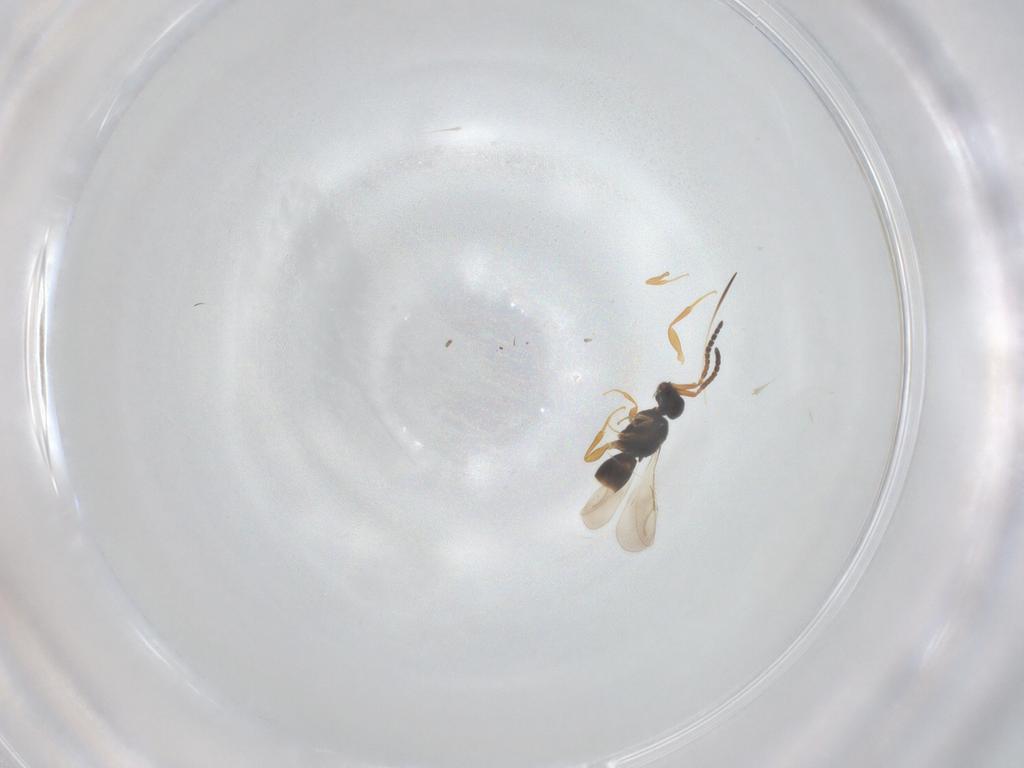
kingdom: Animalia
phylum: Arthropoda
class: Insecta
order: Hymenoptera
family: Ichneumonidae
